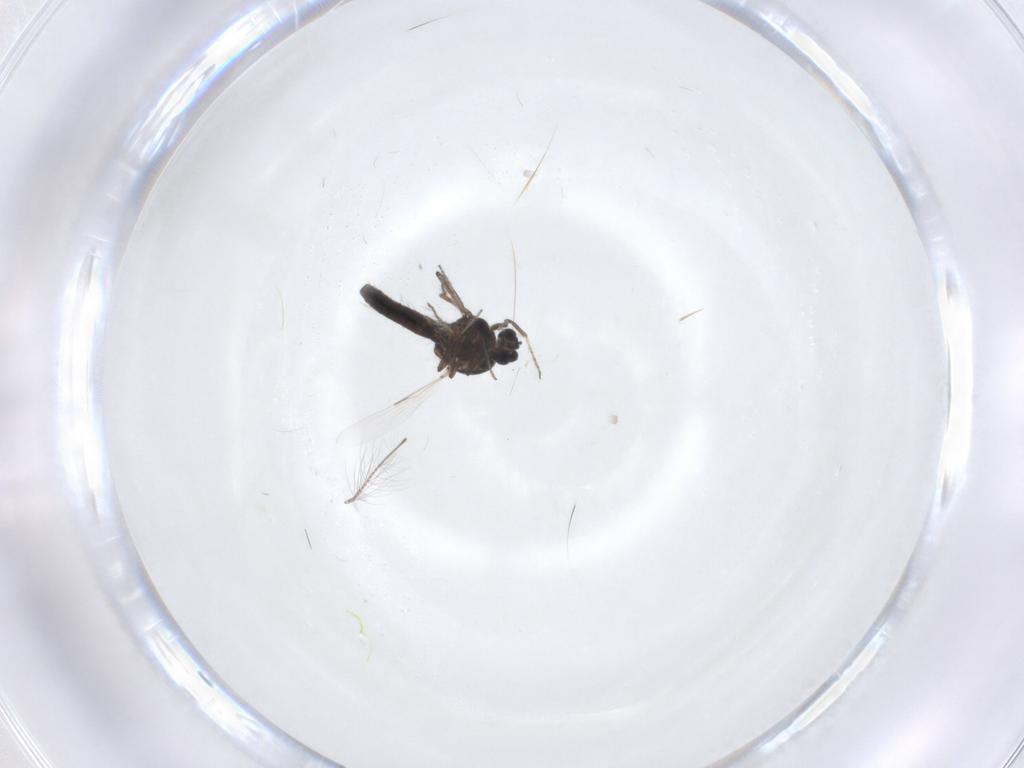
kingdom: Animalia
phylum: Arthropoda
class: Insecta
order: Diptera
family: Ceratopogonidae
